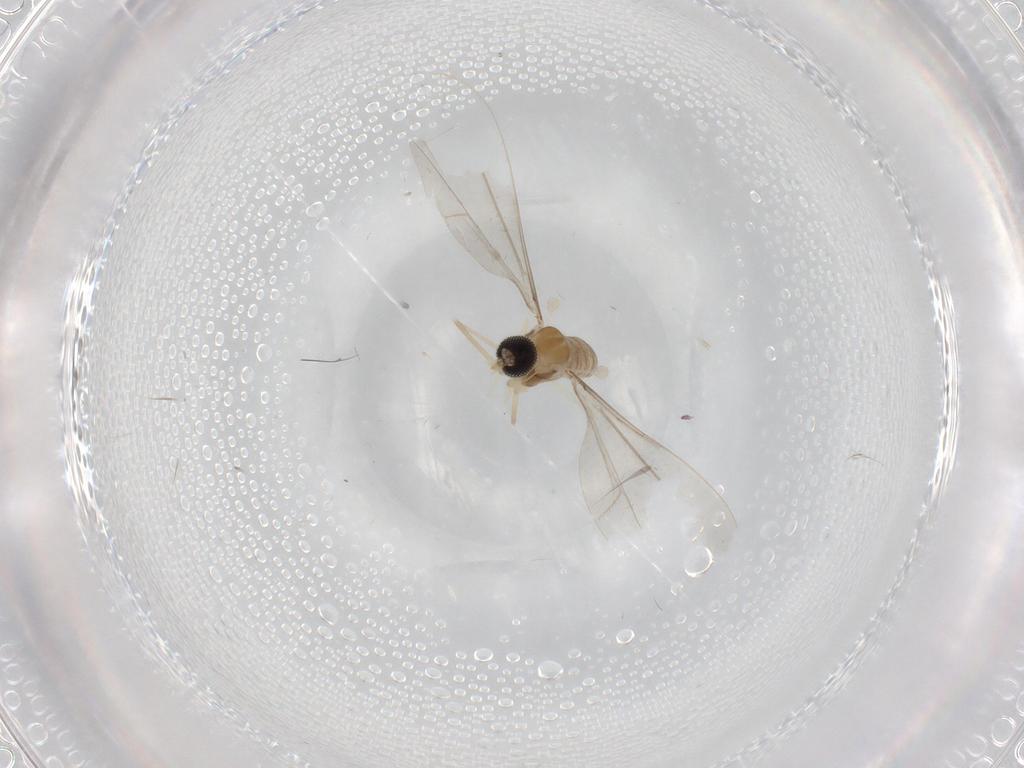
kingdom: Animalia
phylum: Arthropoda
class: Insecta
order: Diptera
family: Cecidomyiidae
